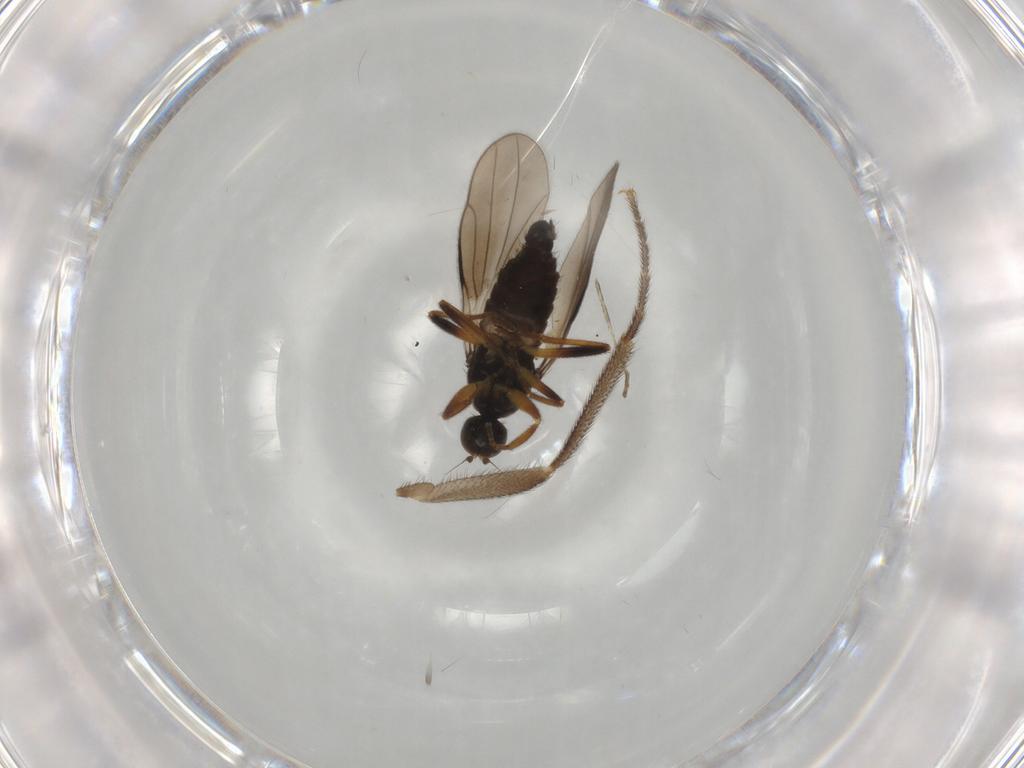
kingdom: Animalia
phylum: Arthropoda
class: Insecta
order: Diptera
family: Hybotidae
